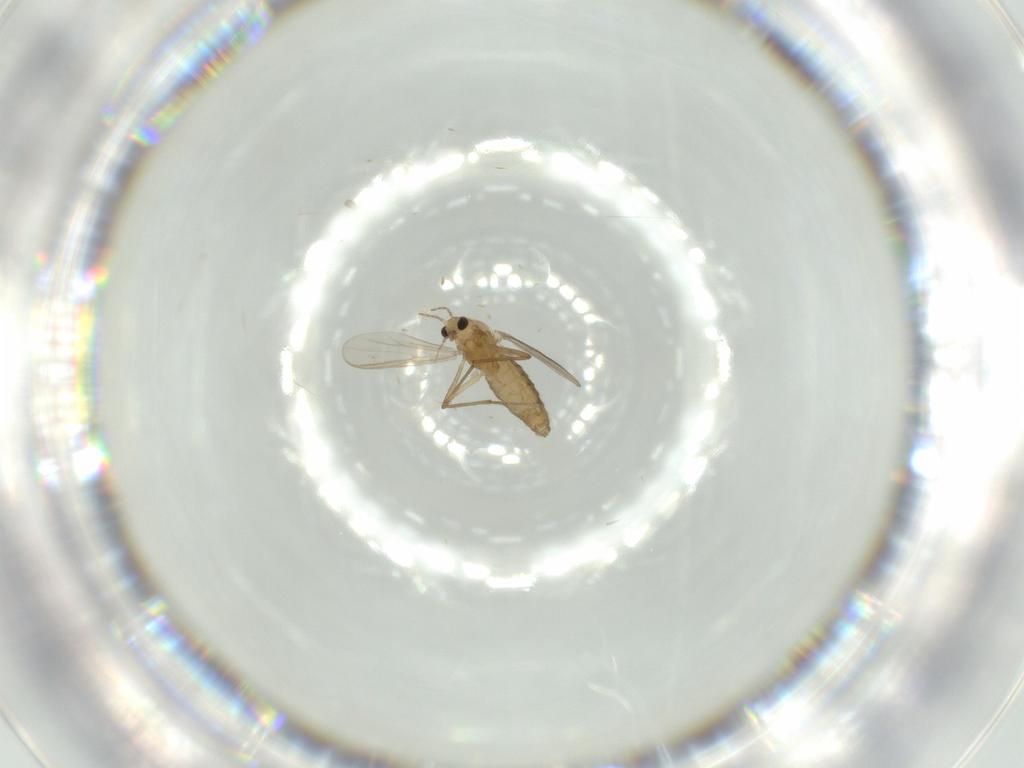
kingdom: Animalia
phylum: Arthropoda
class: Insecta
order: Diptera
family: Chironomidae
